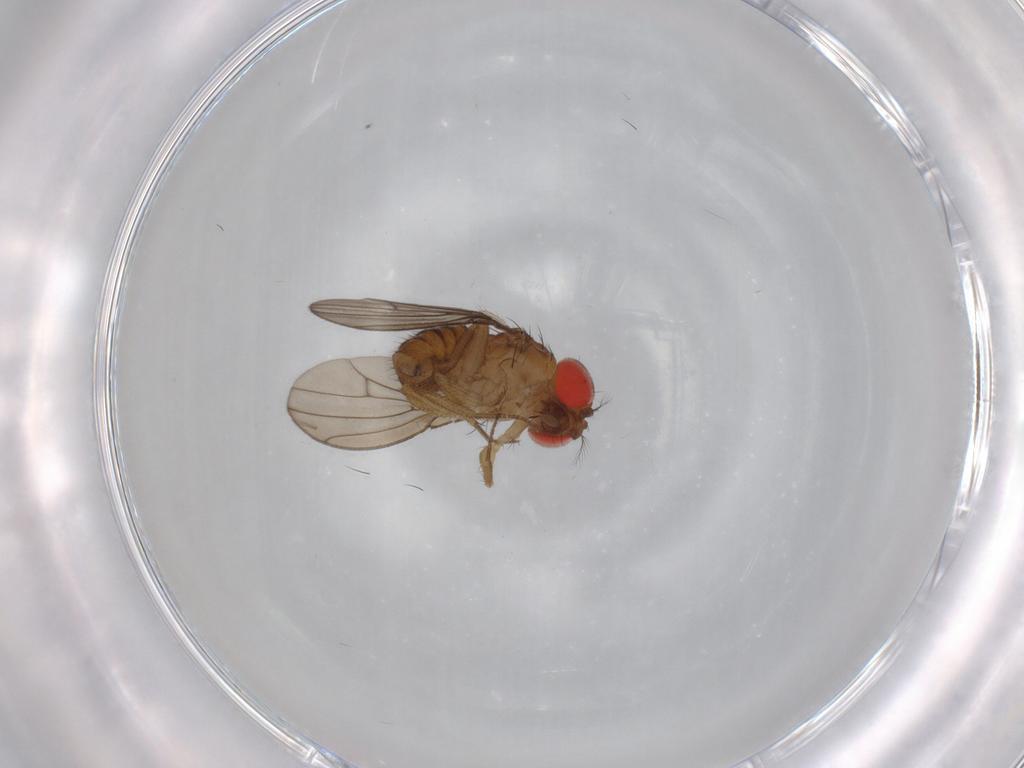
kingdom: Animalia
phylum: Arthropoda
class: Insecta
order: Diptera
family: Drosophilidae
